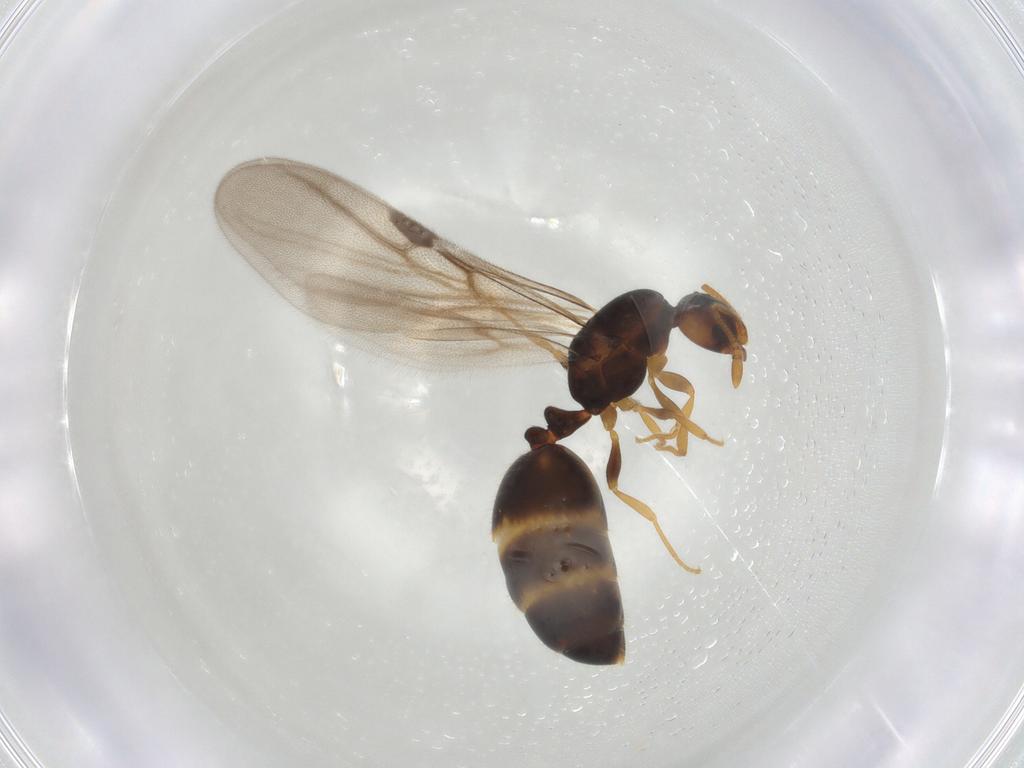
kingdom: Animalia
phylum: Arthropoda
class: Insecta
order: Hymenoptera
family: Formicidae
